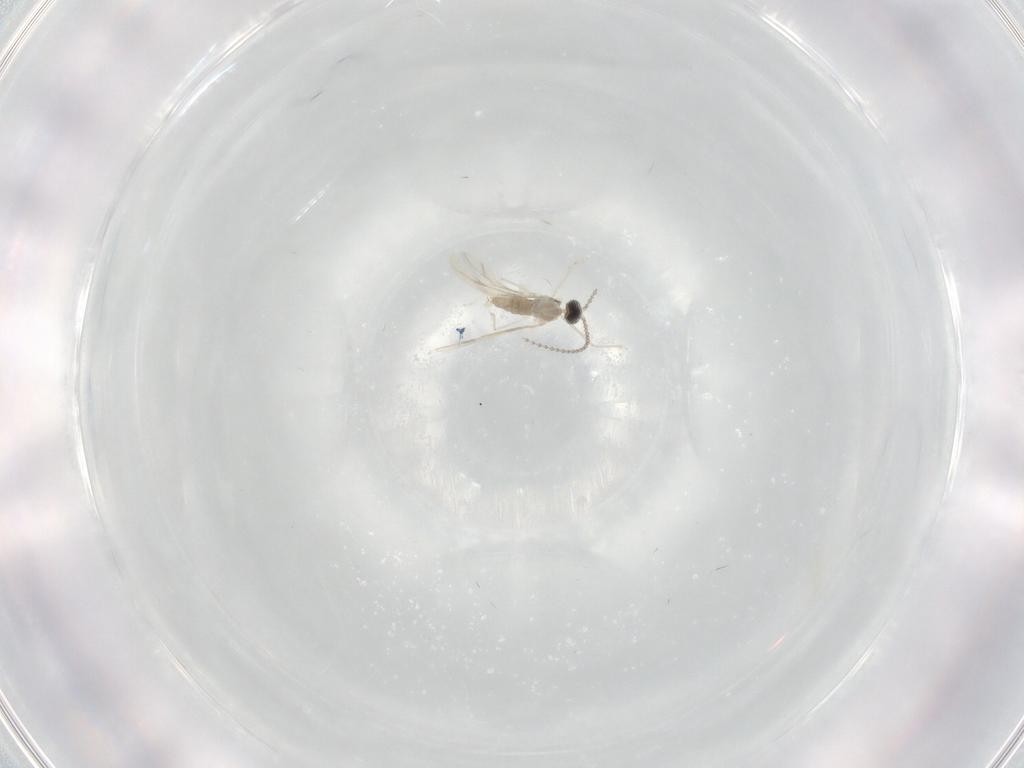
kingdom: Animalia
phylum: Arthropoda
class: Insecta
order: Diptera
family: Cecidomyiidae
